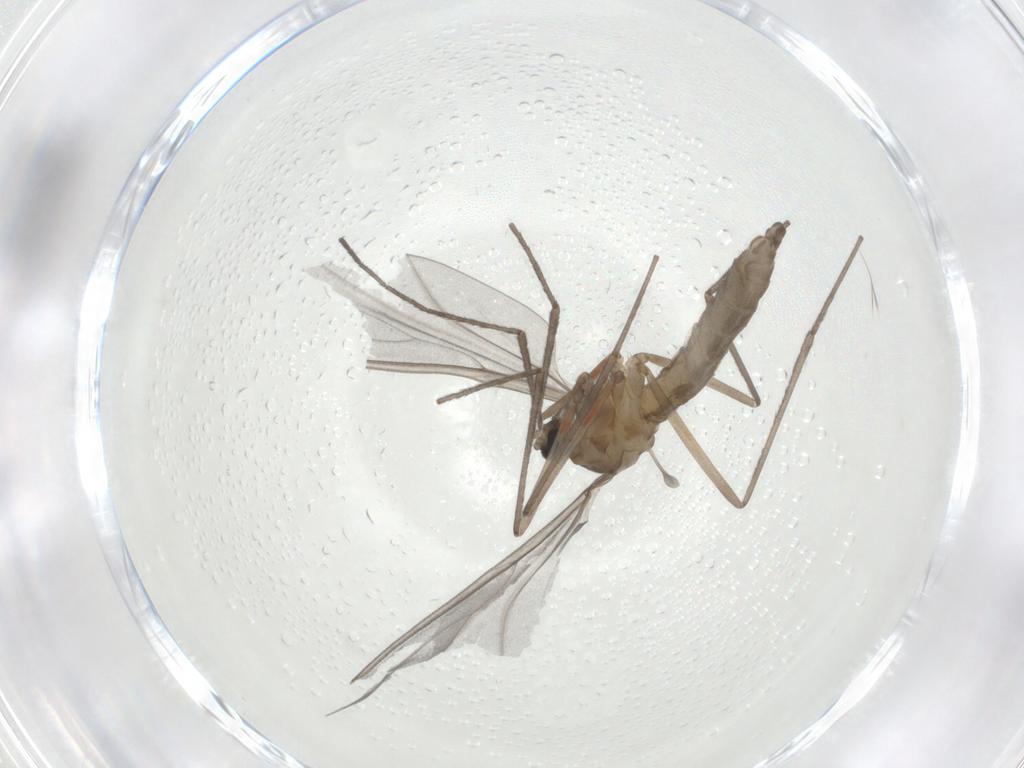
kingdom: Animalia
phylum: Arthropoda
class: Insecta
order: Diptera
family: Cecidomyiidae
